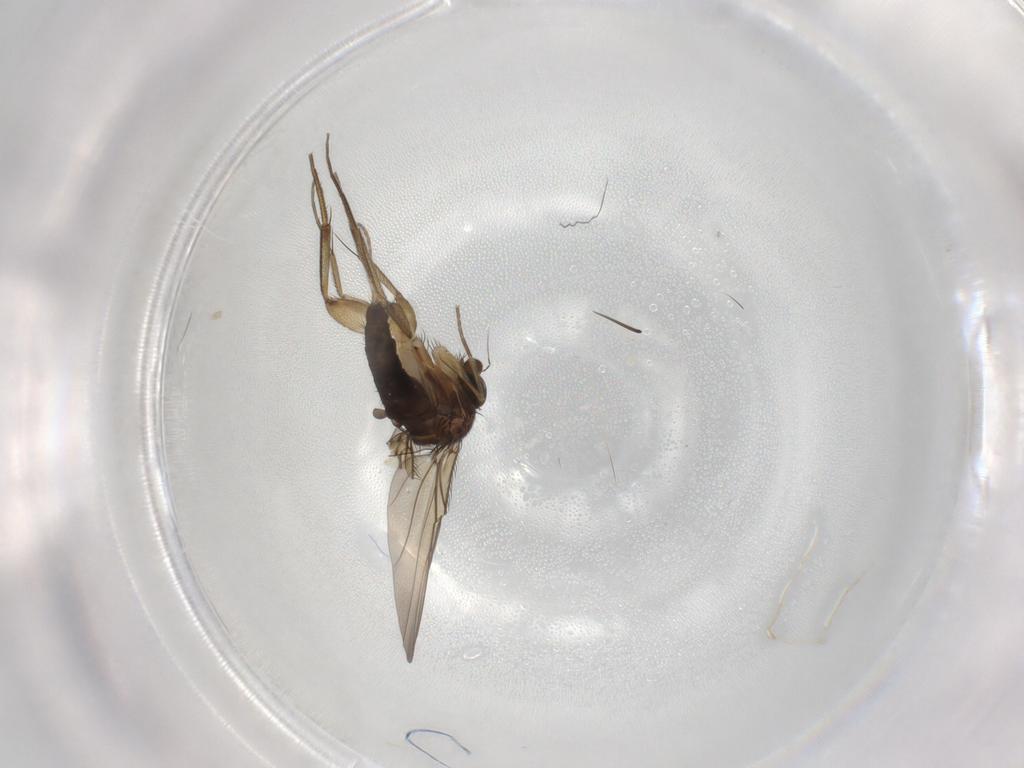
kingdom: Animalia
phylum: Arthropoda
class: Insecta
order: Diptera
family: Phoridae
